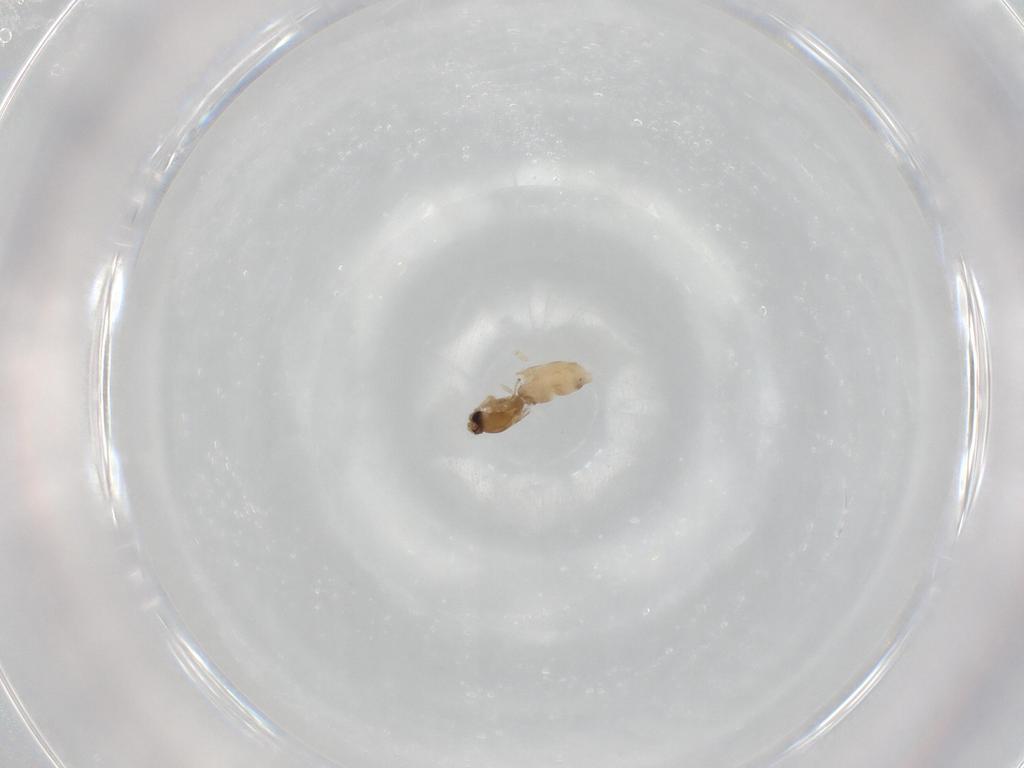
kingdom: Animalia
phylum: Arthropoda
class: Insecta
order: Diptera
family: Cecidomyiidae
